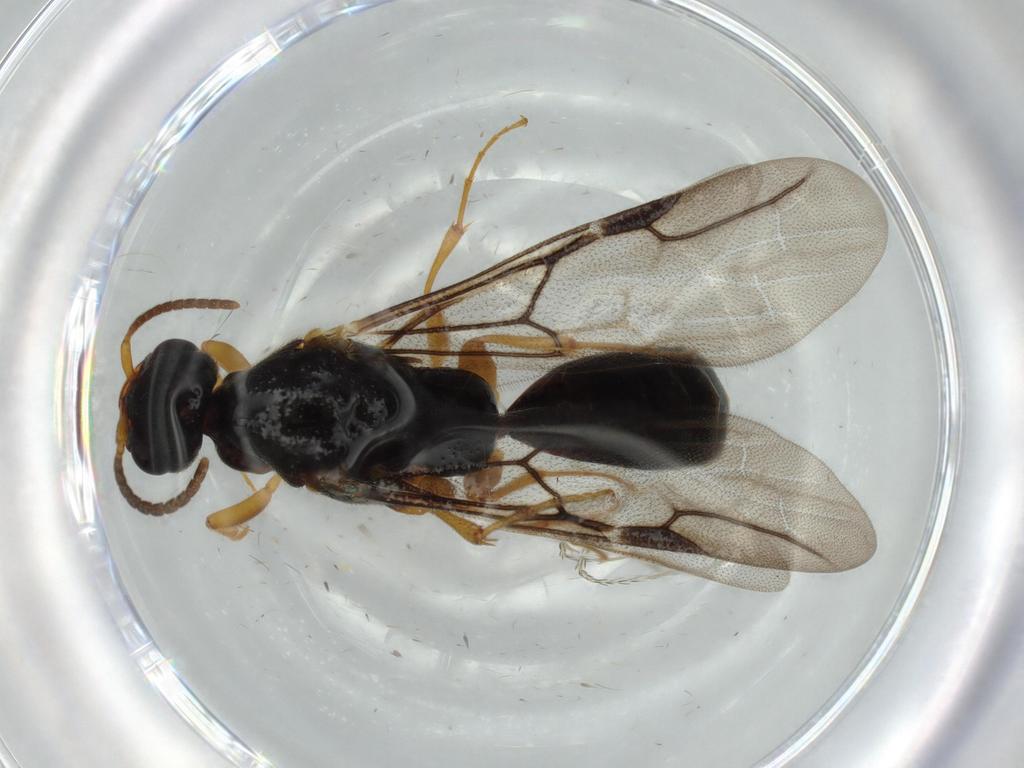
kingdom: Animalia
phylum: Arthropoda
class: Insecta
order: Hymenoptera
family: Bethylidae
